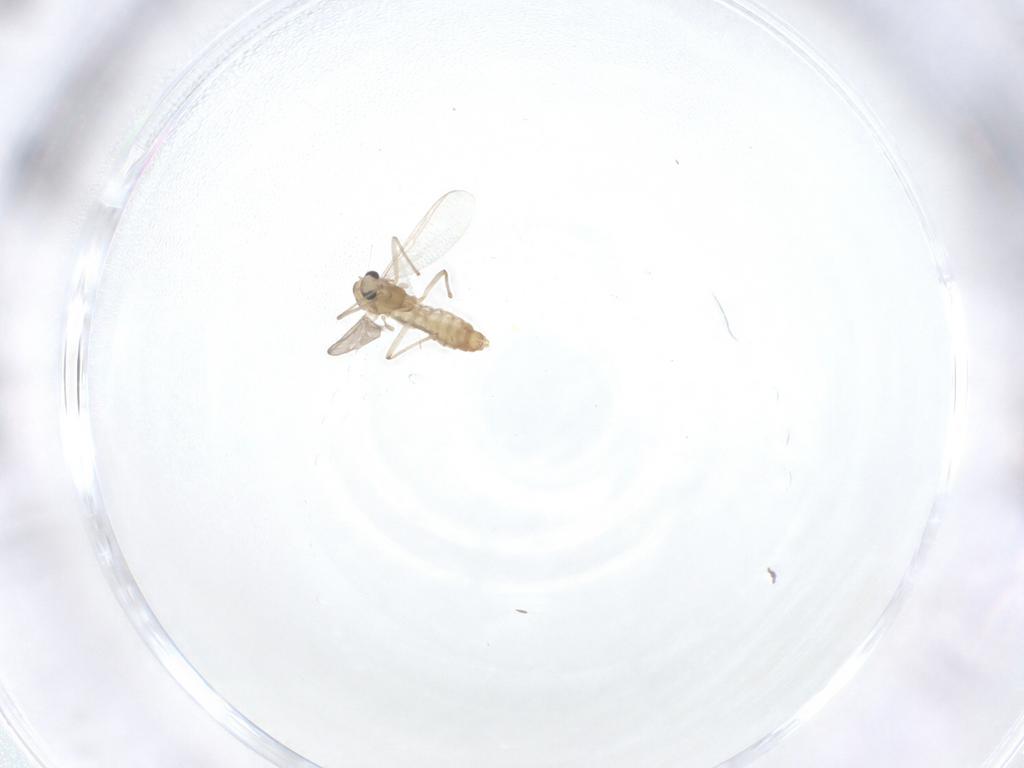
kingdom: Animalia
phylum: Arthropoda
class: Insecta
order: Diptera
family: Chironomidae
